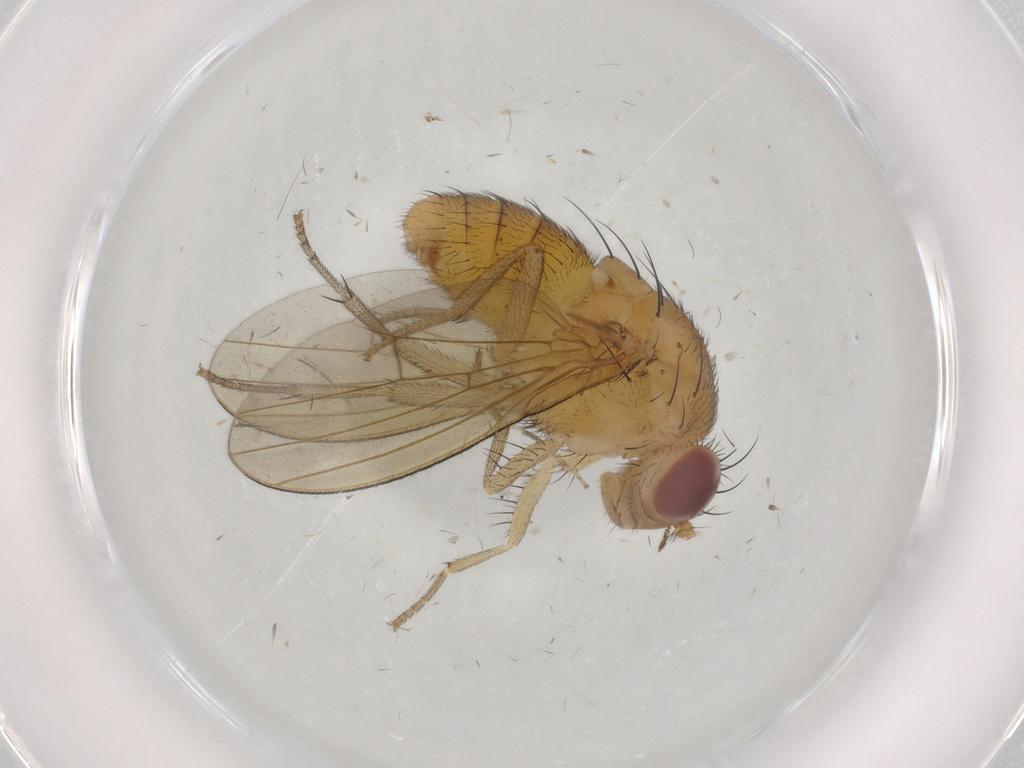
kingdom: Animalia
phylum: Arthropoda
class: Insecta
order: Diptera
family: Lauxaniidae
